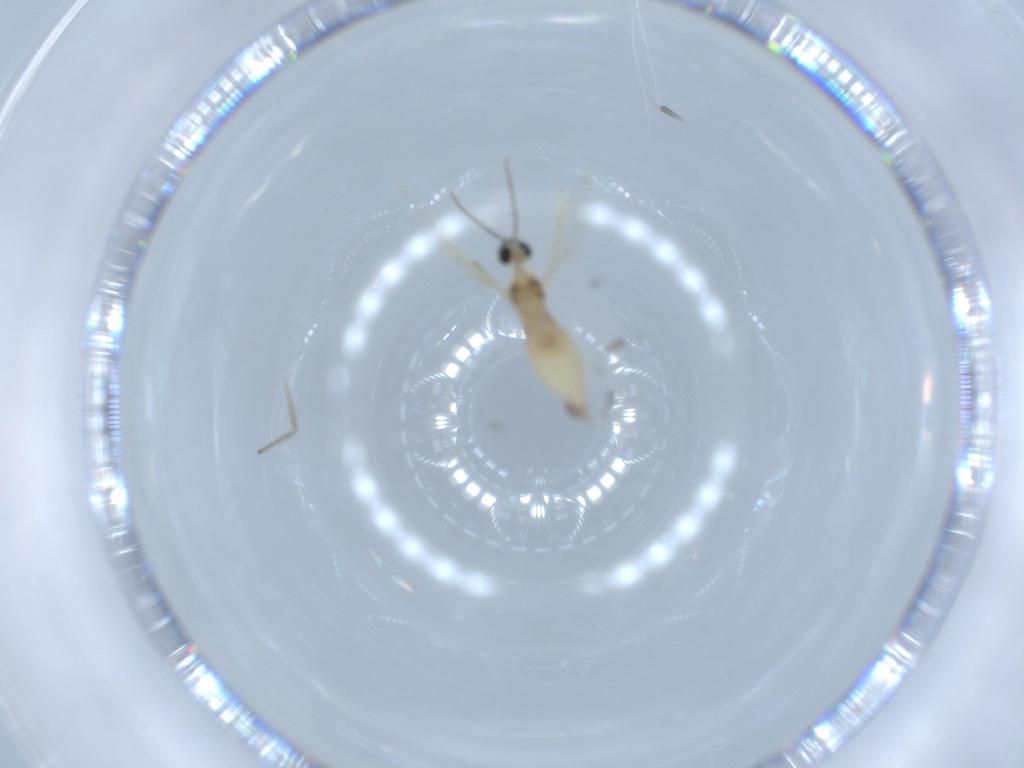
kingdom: Animalia
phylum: Arthropoda
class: Insecta
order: Diptera
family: Cecidomyiidae
